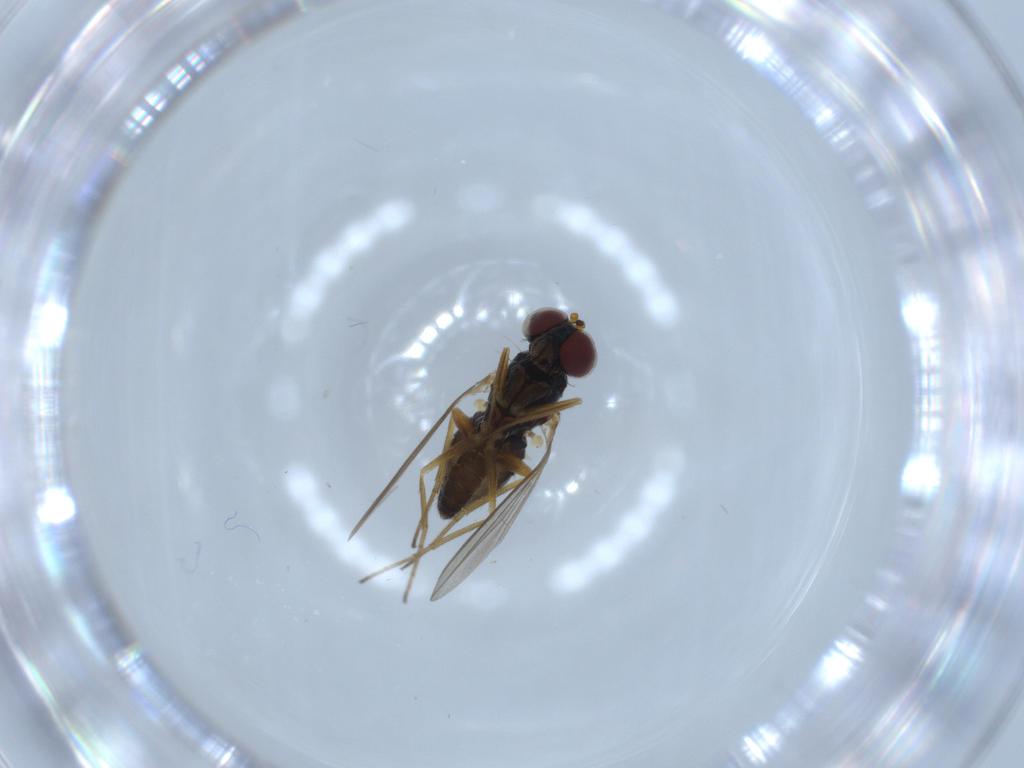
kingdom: Animalia
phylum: Arthropoda
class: Insecta
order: Diptera
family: Dolichopodidae
